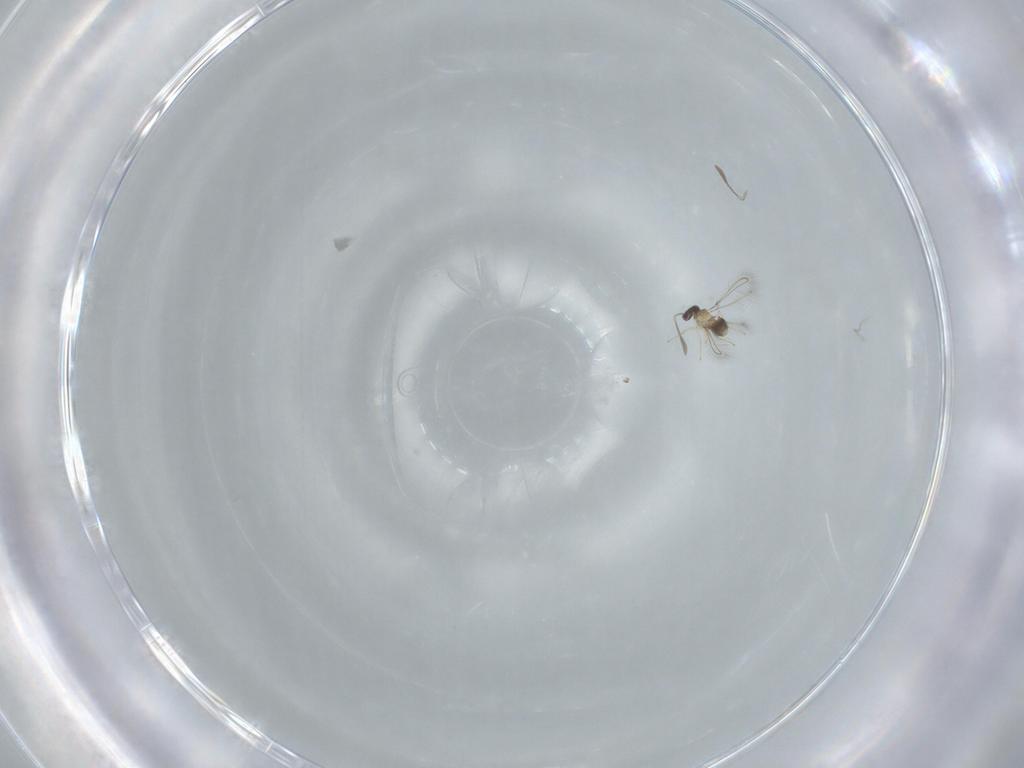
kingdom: Animalia
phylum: Arthropoda
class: Insecta
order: Hymenoptera
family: Trichogrammatidae
